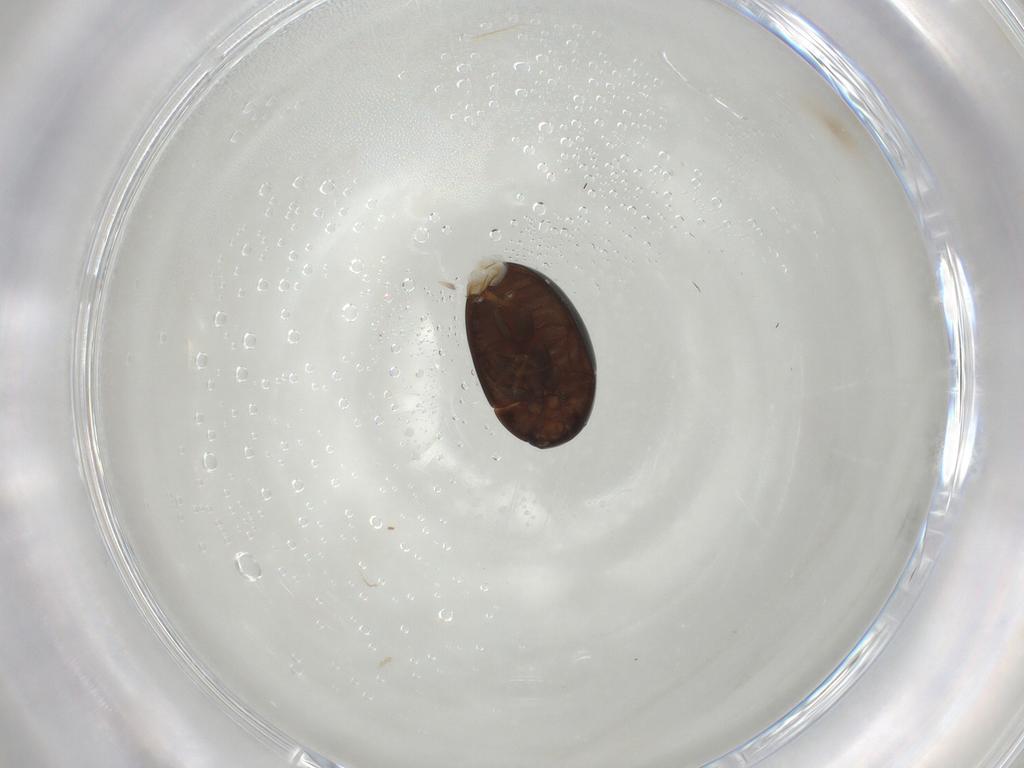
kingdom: Animalia
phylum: Arthropoda
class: Insecta
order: Coleoptera
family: Phalacridae
